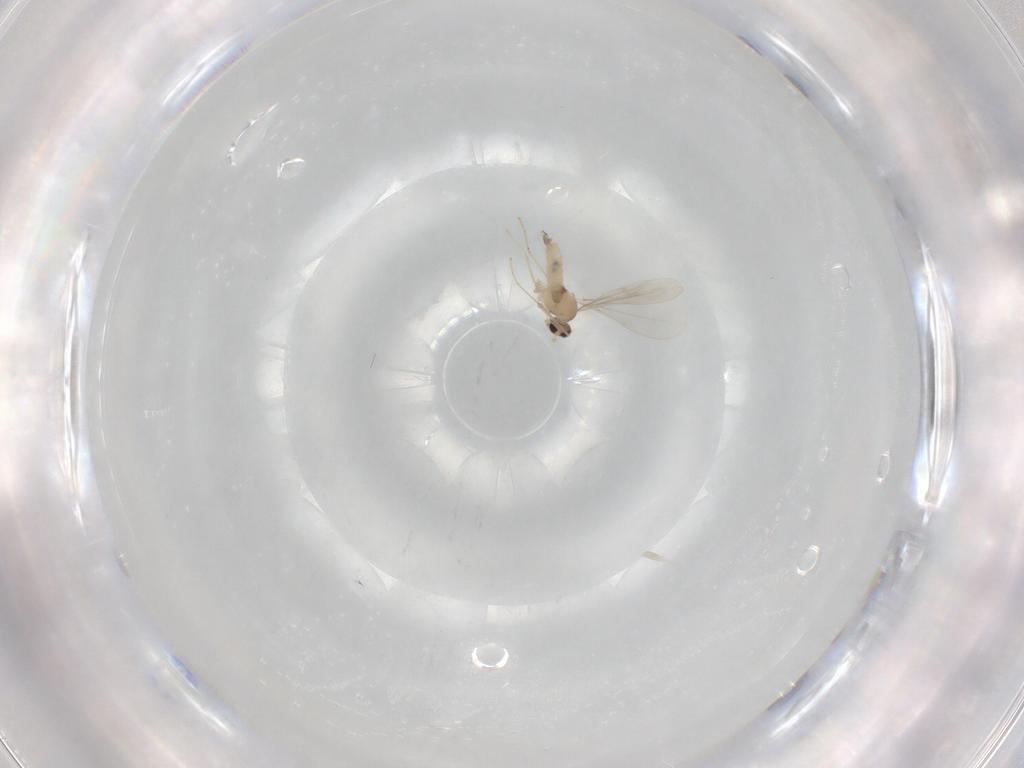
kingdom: Animalia
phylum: Arthropoda
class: Insecta
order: Diptera
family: Cecidomyiidae
